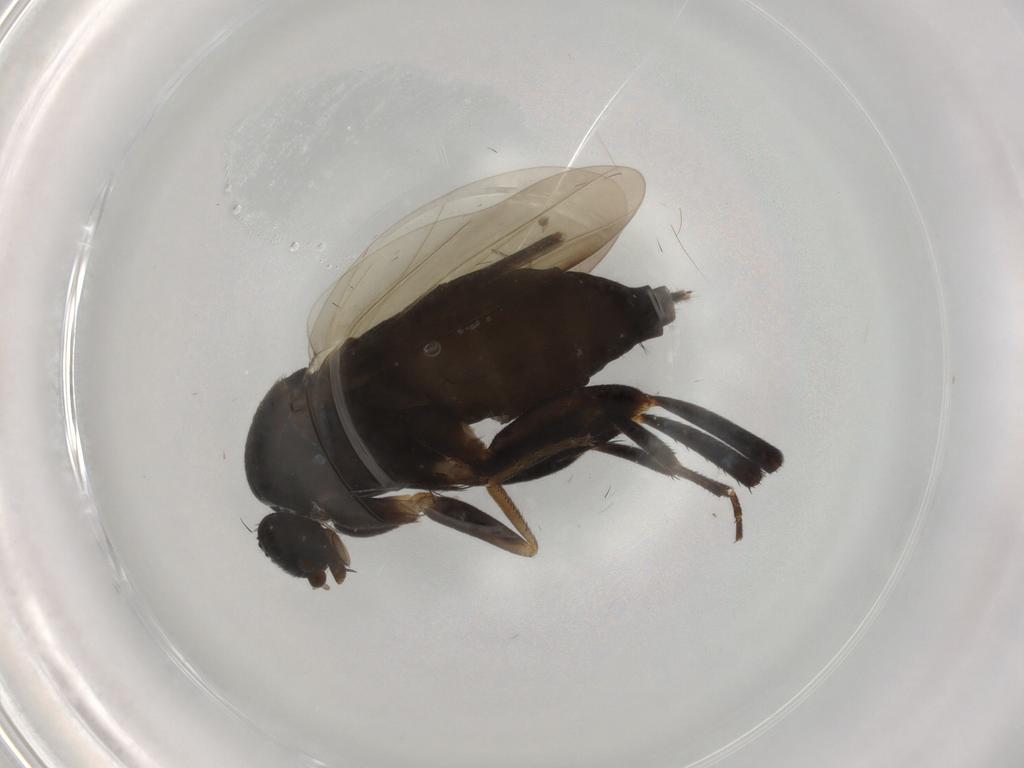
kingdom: Animalia
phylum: Arthropoda
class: Insecta
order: Diptera
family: Phoridae
